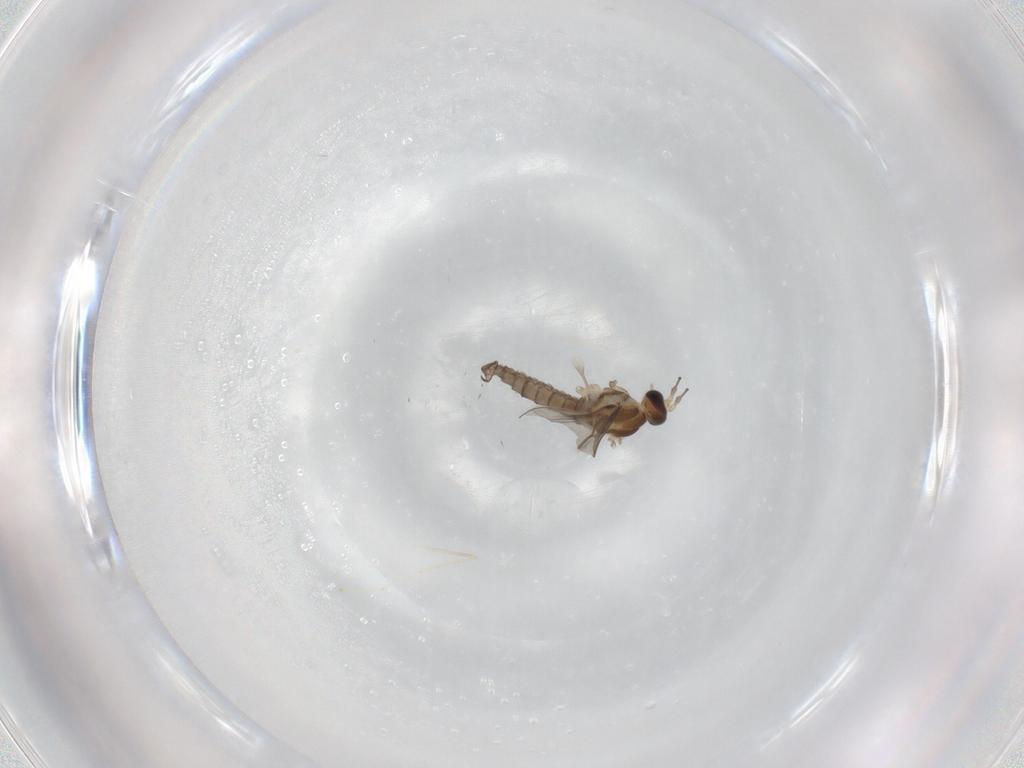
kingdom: Animalia
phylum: Arthropoda
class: Insecta
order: Diptera
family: Cecidomyiidae
